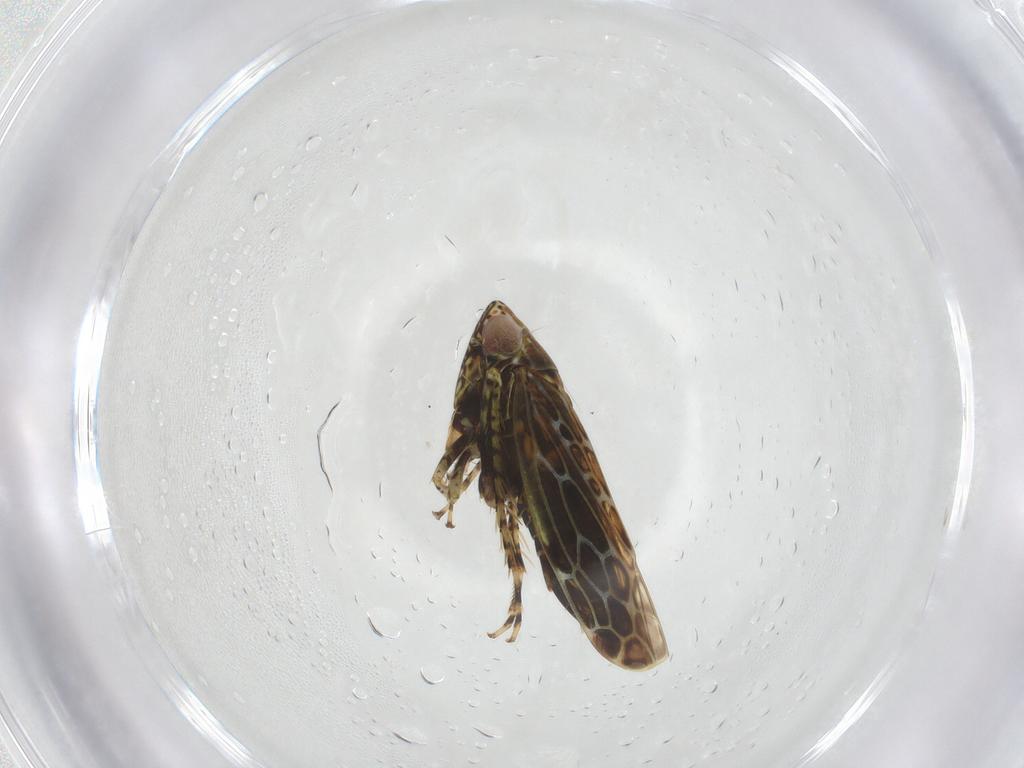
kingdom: Animalia
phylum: Arthropoda
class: Insecta
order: Hemiptera
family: Cicadellidae
